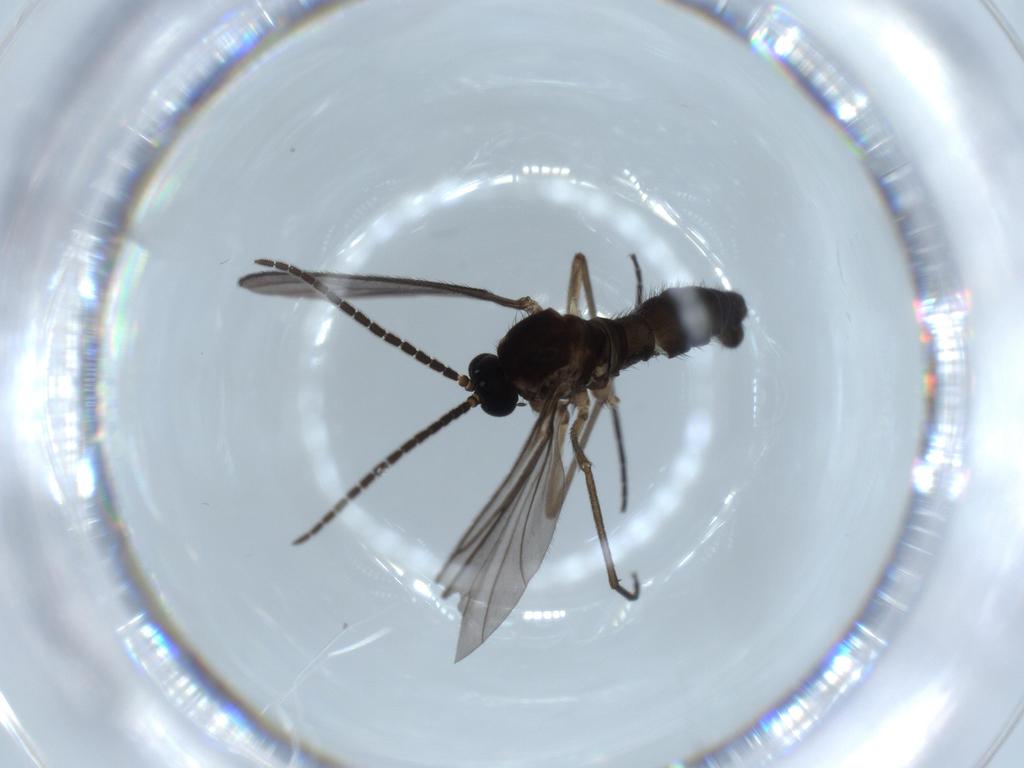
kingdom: Animalia
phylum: Arthropoda
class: Insecta
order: Diptera
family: Sciaridae
